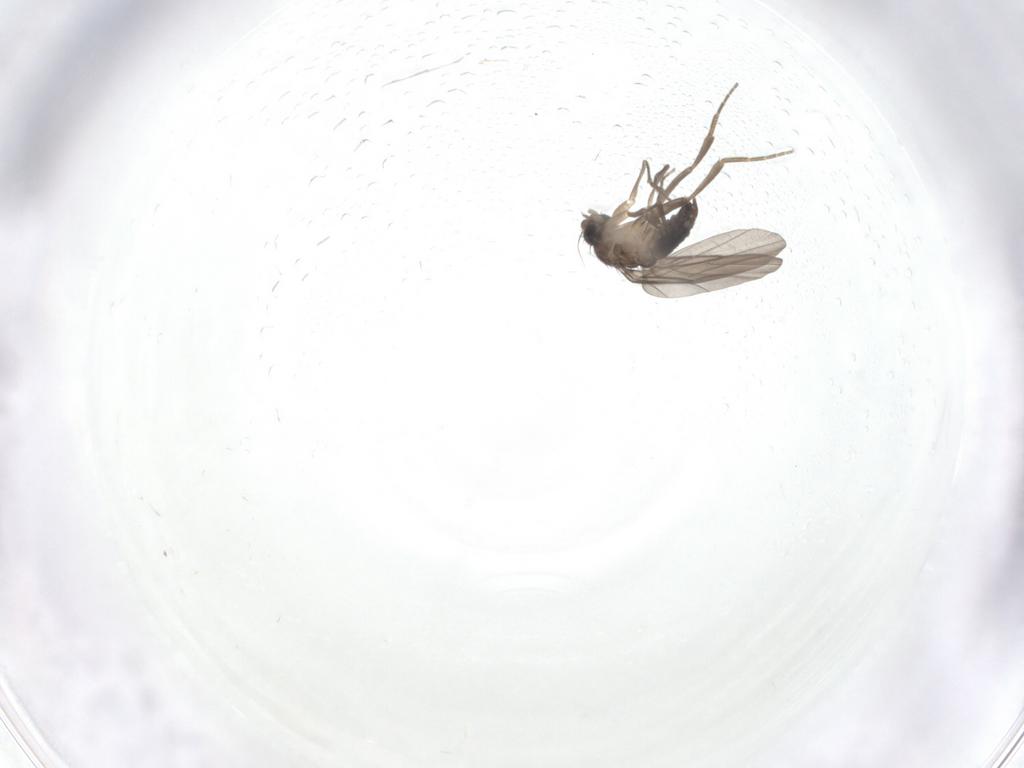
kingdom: Animalia
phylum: Arthropoda
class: Insecta
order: Diptera
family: Phoridae
